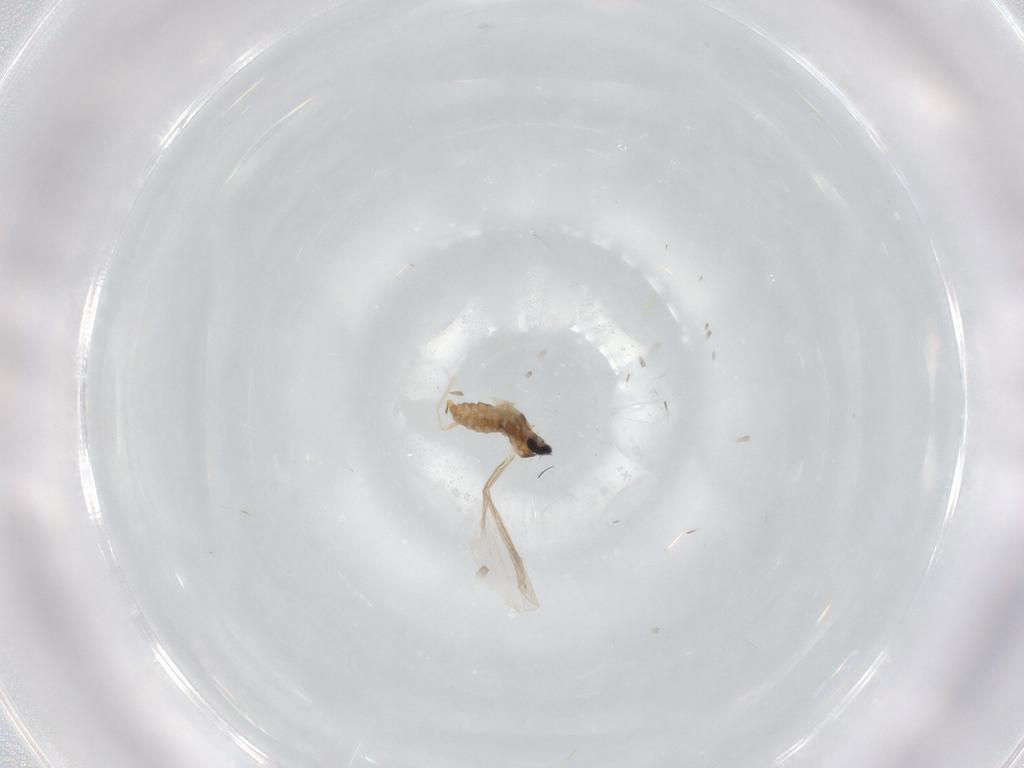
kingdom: Animalia
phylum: Arthropoda
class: Insecta
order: Diptera
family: Cecidomyiidae
